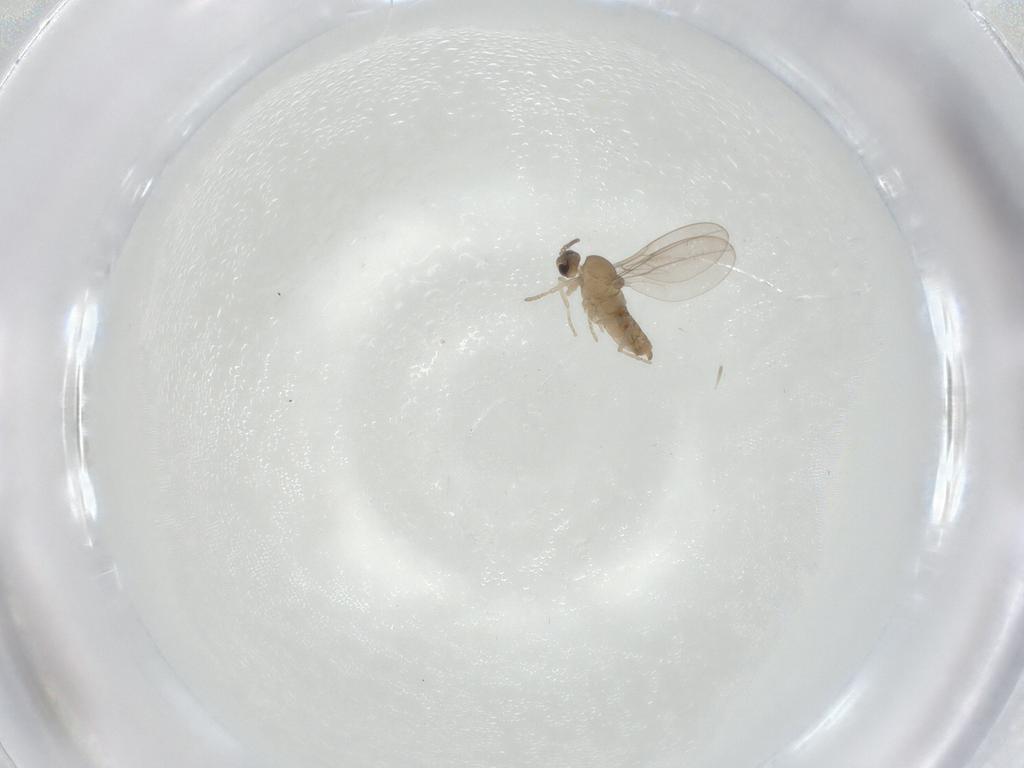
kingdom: Animalia
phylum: Arthropoda
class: Insecta
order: Diptera
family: Cecidomyiidae
